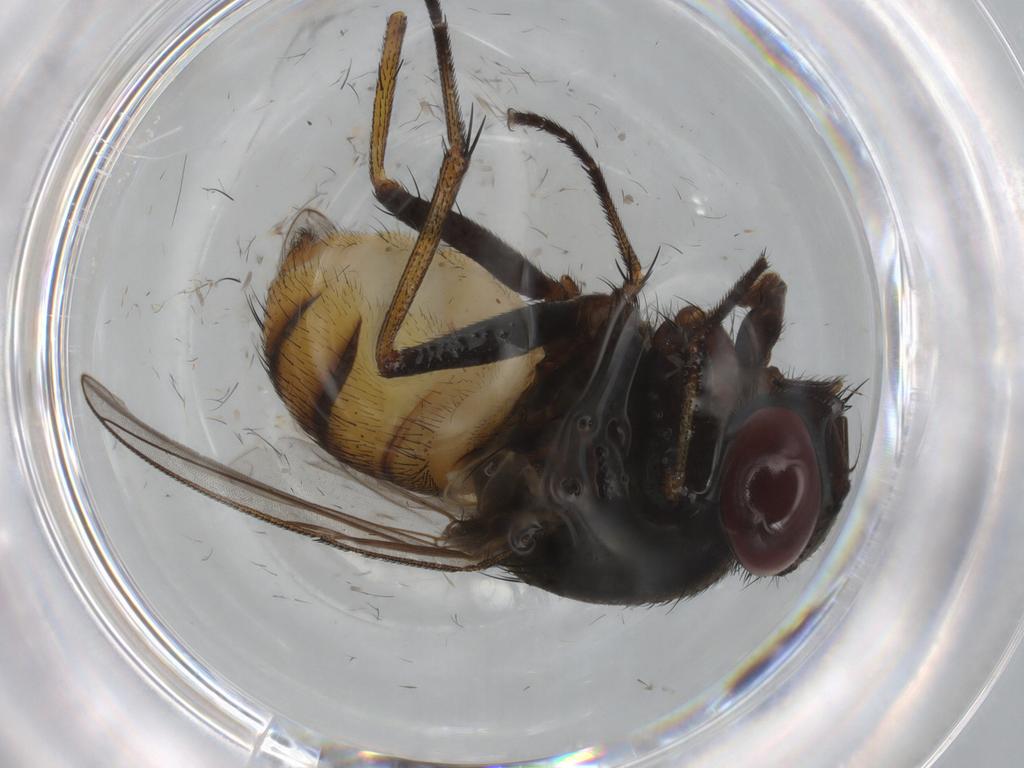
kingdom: Animalia
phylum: Arthropoda
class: Insecta
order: Diptera
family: Muscidae
